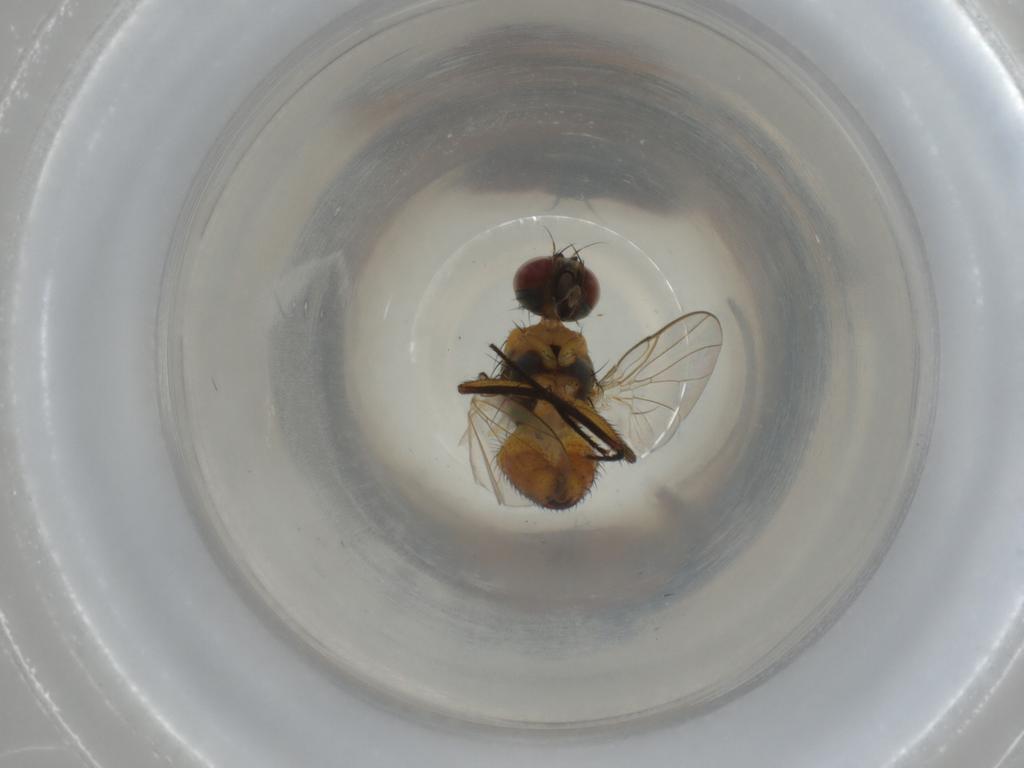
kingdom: Animalia
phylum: Arthropoda
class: Insecta
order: Diptera
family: Muscidae
